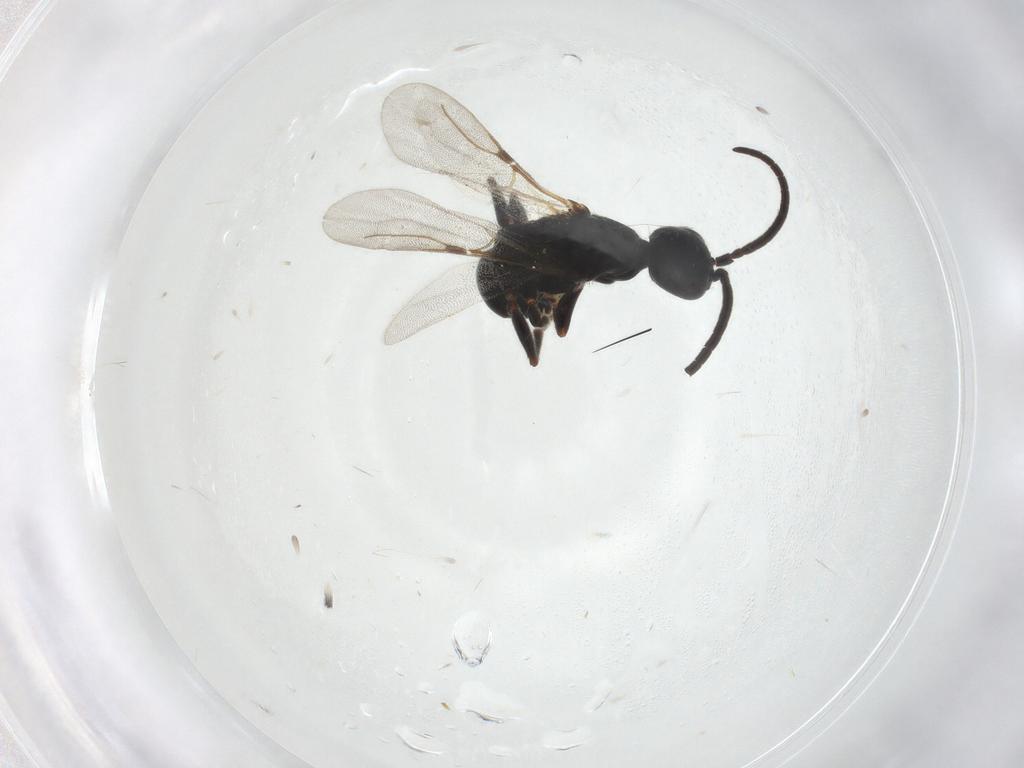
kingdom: Animalia
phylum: Arthropoda
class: Insecta
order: Hymenoptera
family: Bethylidae
